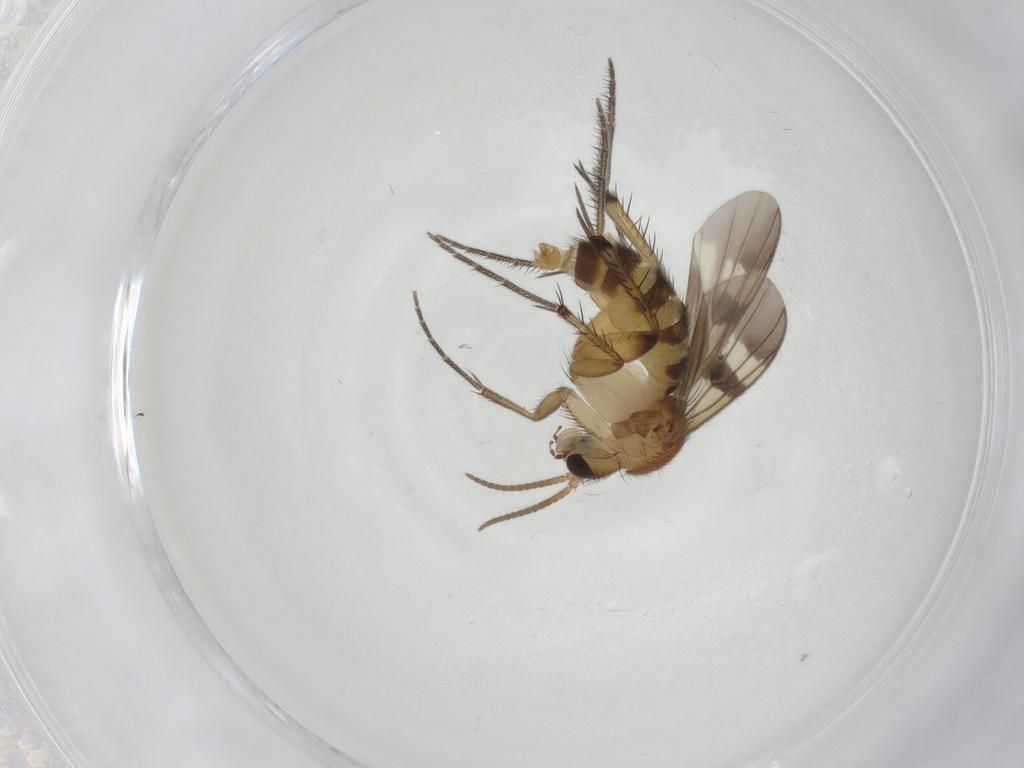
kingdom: Animalia
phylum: Arthropoda
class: Insecta
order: Diptera
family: Mycetophilidae
